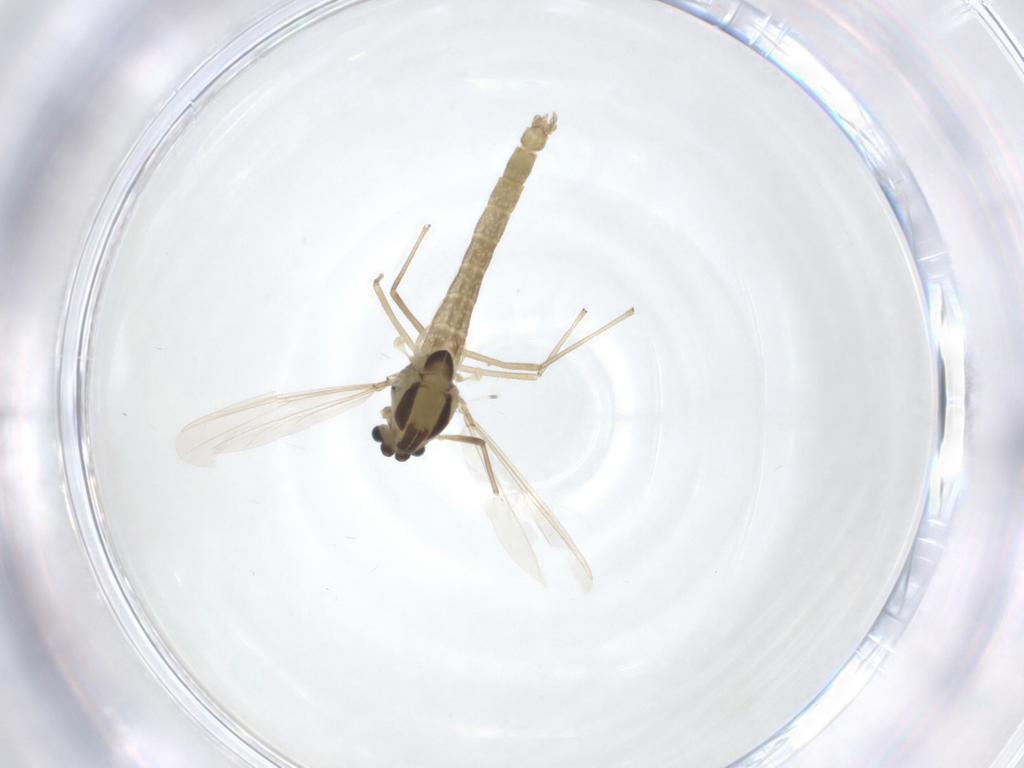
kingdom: Animalia
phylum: Arthropoda
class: Insecta
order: Diptera
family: Chironomidae
